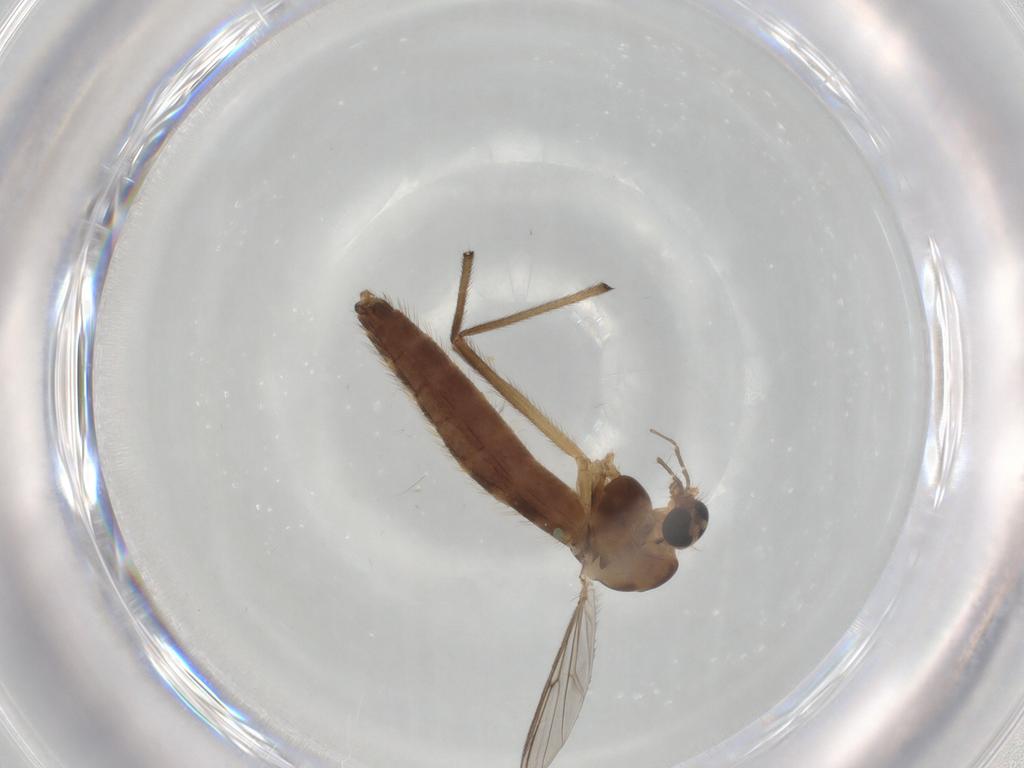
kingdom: Animalia
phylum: Arthropoda
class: Insecta
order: Diptera
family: Chironomidae
